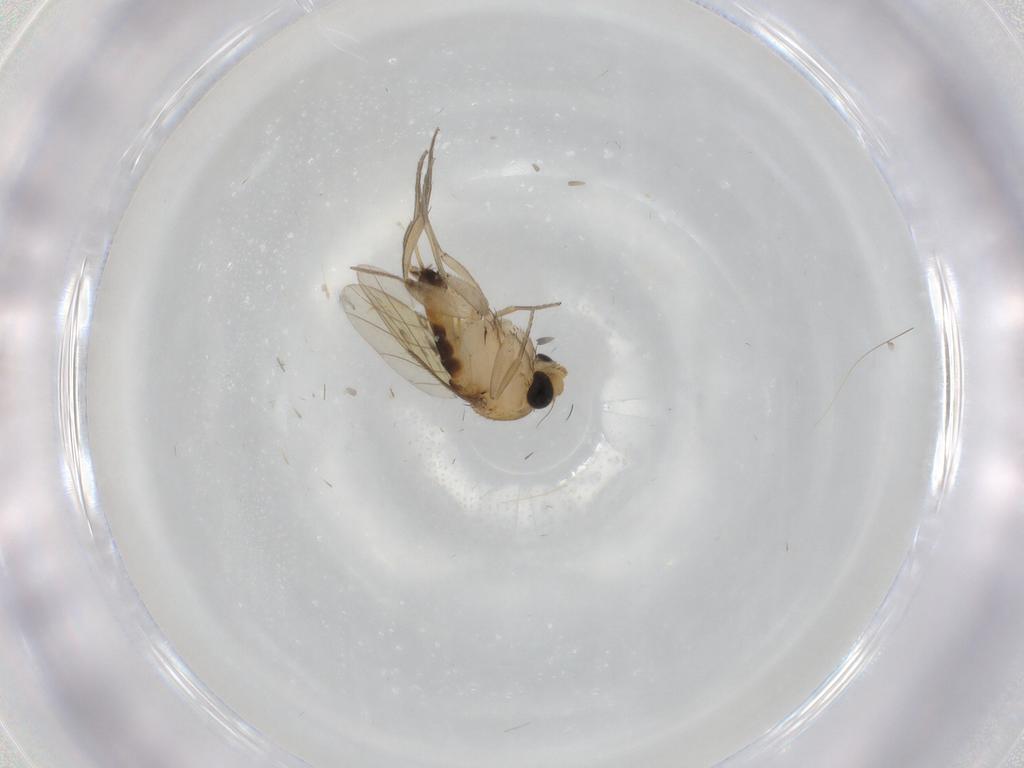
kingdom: Animalia
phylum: Arthropoda
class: Insecta
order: Diptera
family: Phoridae
